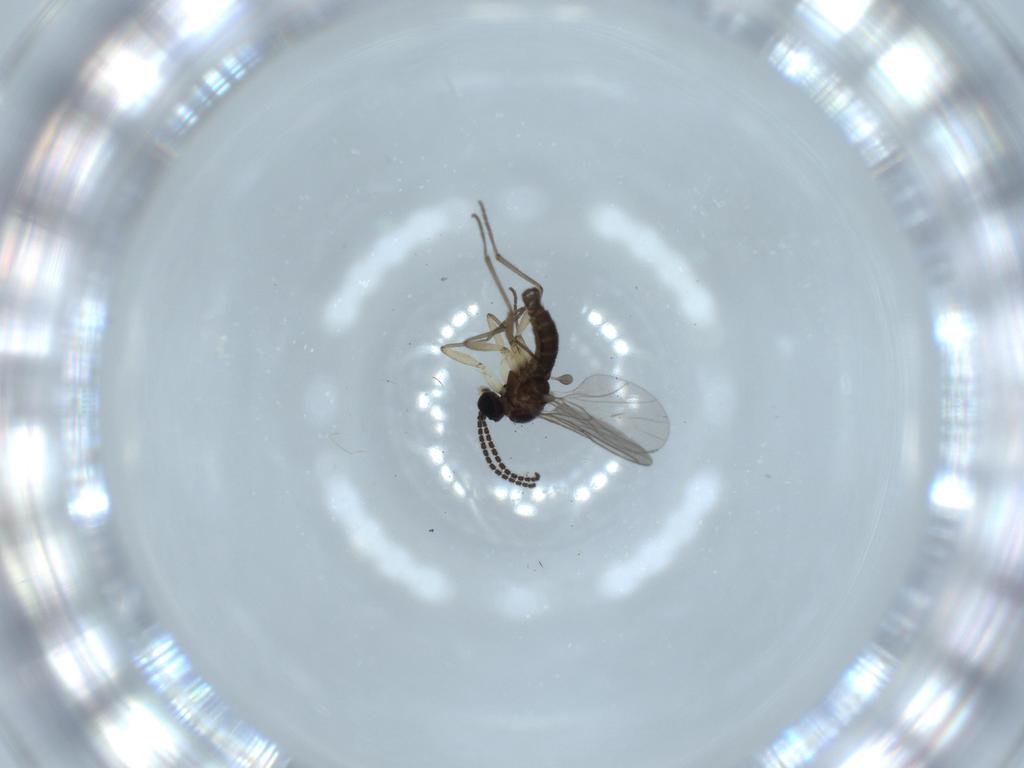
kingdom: Animalia
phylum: Arthropoda
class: Insecta
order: Diptera
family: Sciaridae
